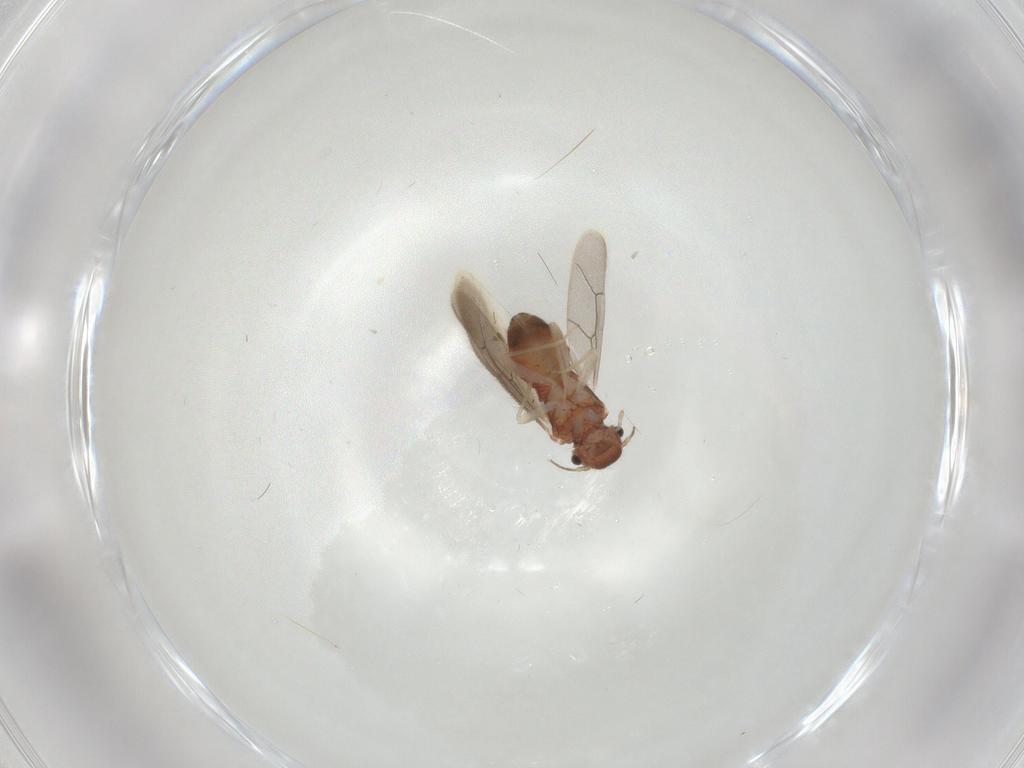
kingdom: Animalia
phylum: Arthropoda
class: Insecta
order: Psocodea
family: Archipsocidae
